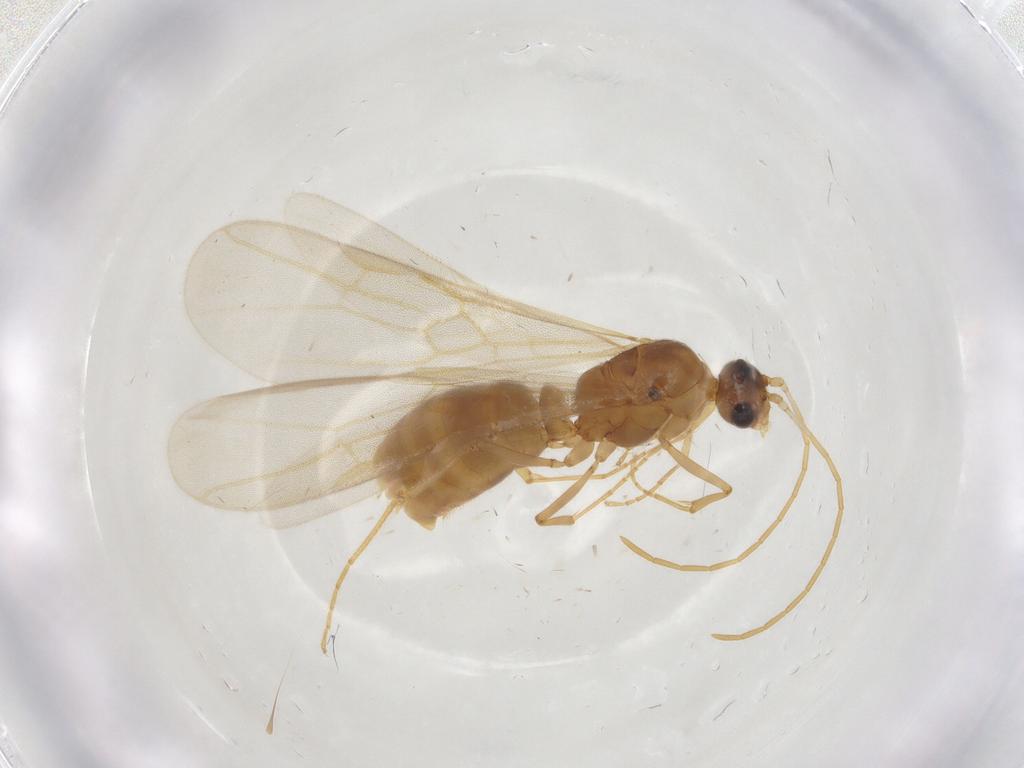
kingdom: Animalia
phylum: Arthropoda
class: Insecta
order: Hymenoptera
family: Formicidae
